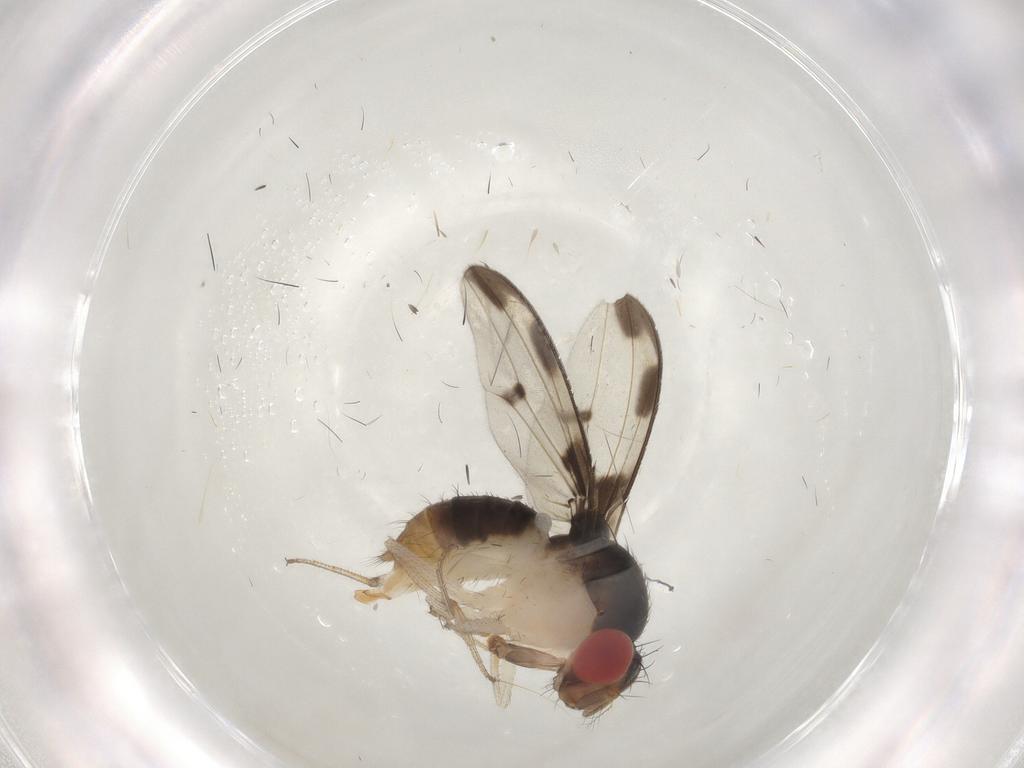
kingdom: Animalia
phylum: Arthropoda
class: Insecta
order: Diptera
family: Drosophilidae
